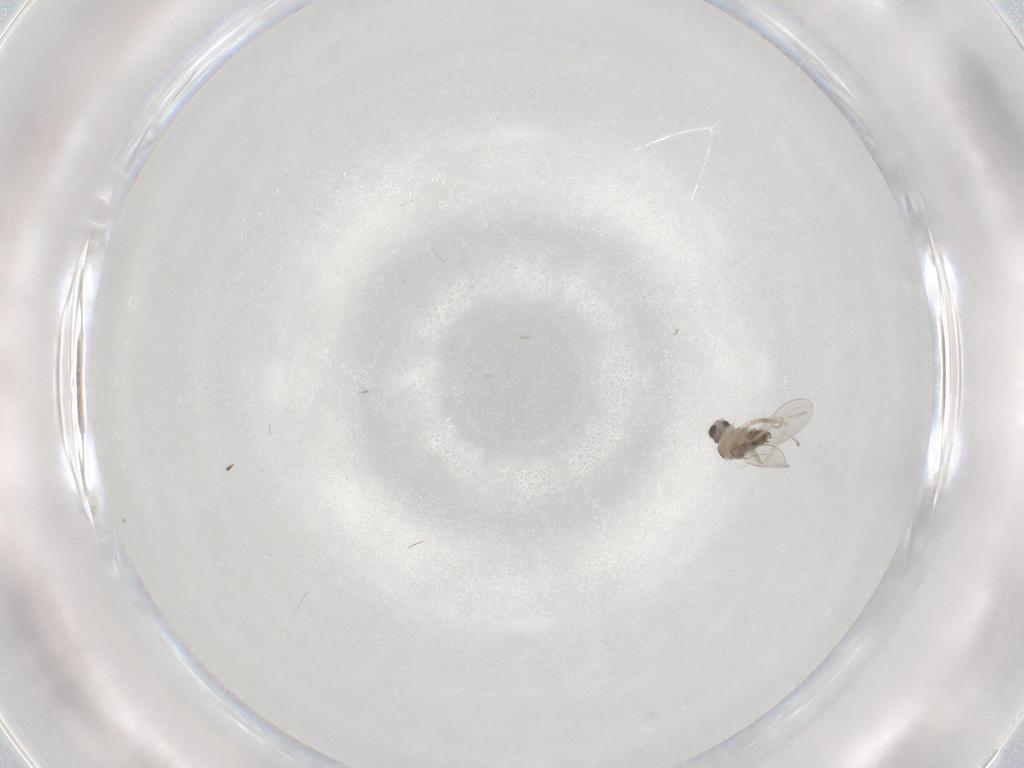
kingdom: Animalia
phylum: Arthropoda
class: Insecta
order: Diptera
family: Cecidomyiidae
